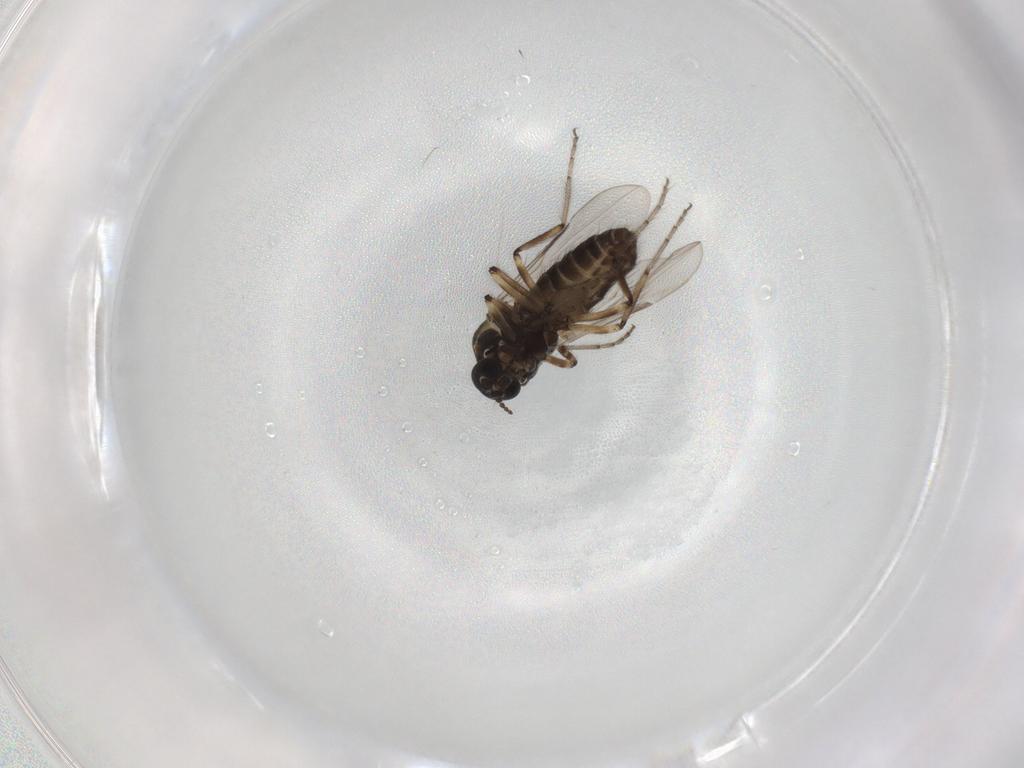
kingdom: Animalia
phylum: Arthropoda
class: Insecta
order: Diptera
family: Ceratopogonidae
